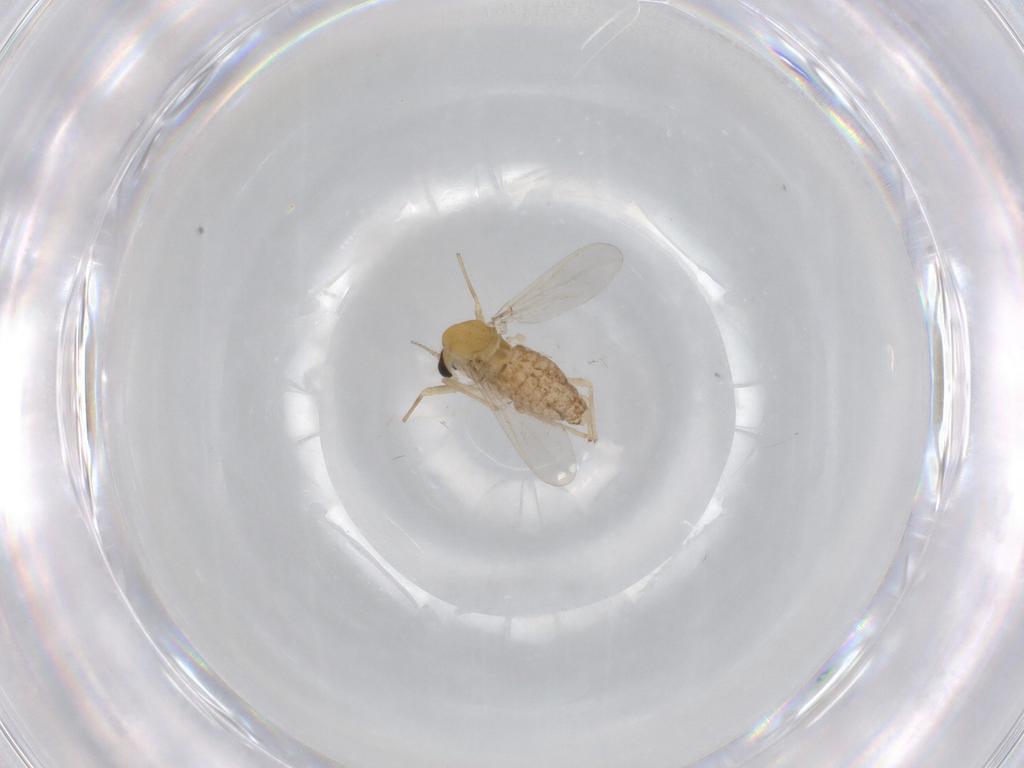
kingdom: Animalia
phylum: Arthropoda
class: Insecta
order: Diptera
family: Chironomidae
